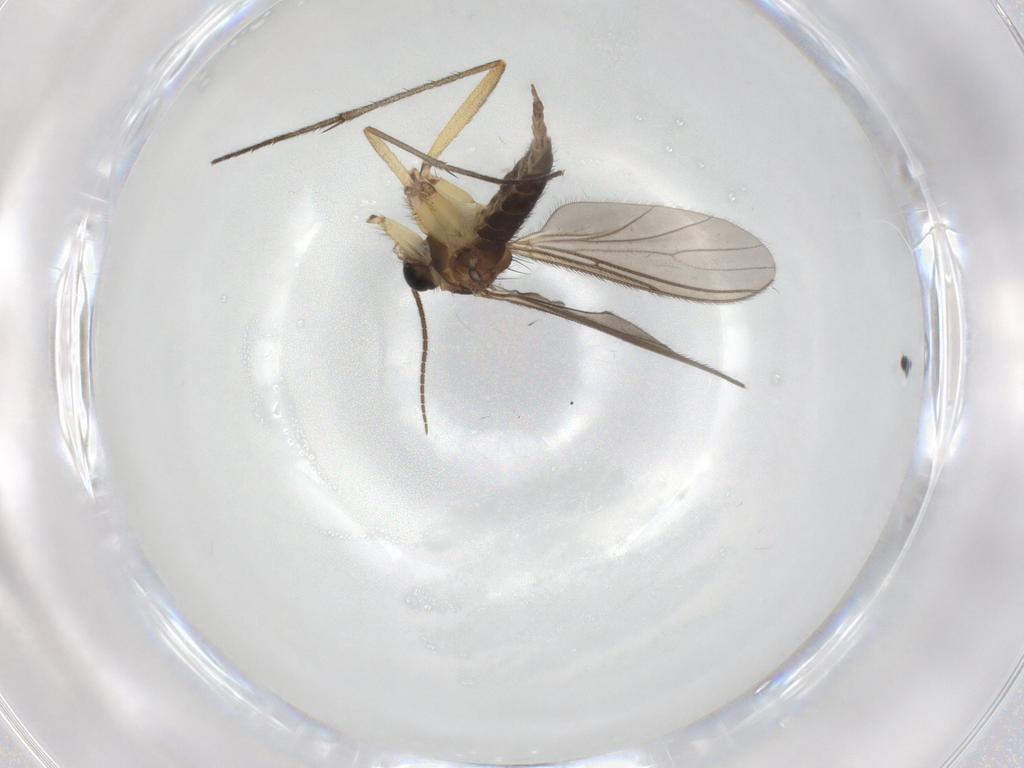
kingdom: Animalia
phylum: Arthropoda
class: Insecta
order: Diptera
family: Sciaridae
